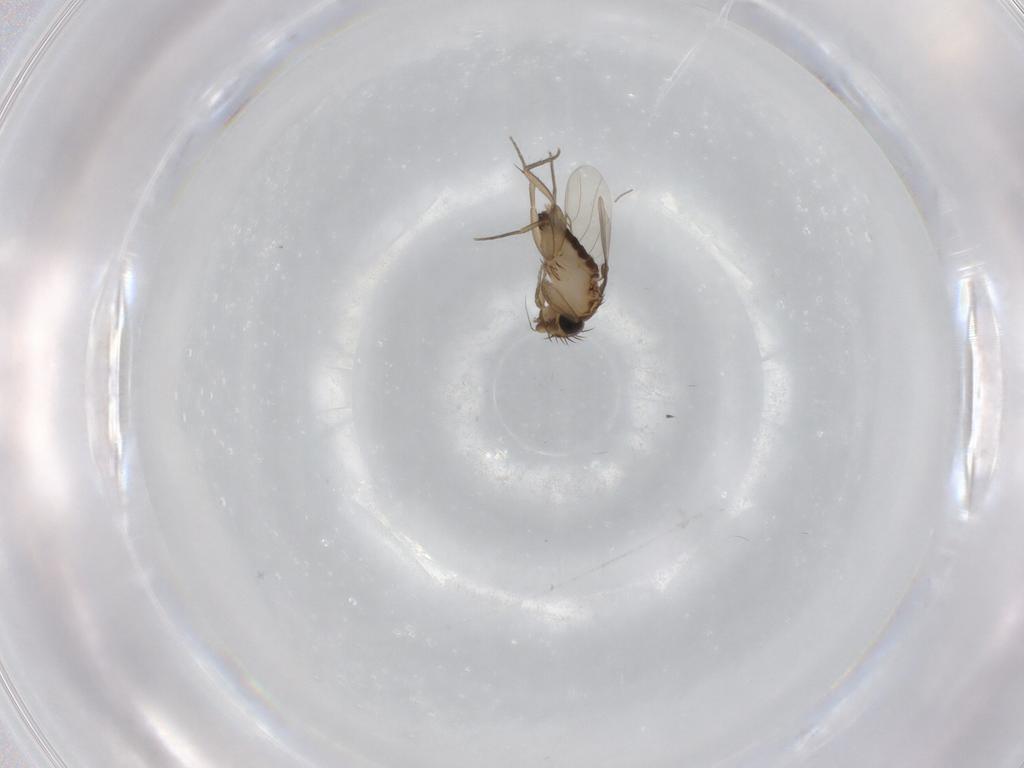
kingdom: Animalia
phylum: Arthropoda
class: Insecta
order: Diptera
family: Phoridae
